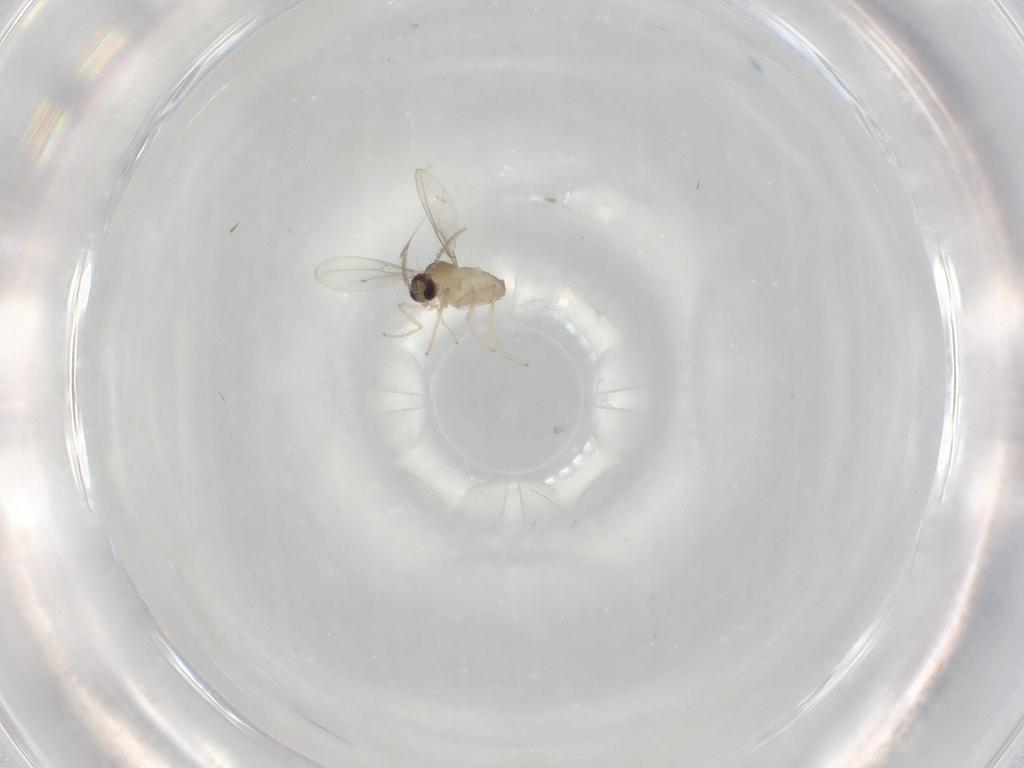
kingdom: Animalia
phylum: Arthropoda
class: Insecta
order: Diptera
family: Cecidomyiidae
